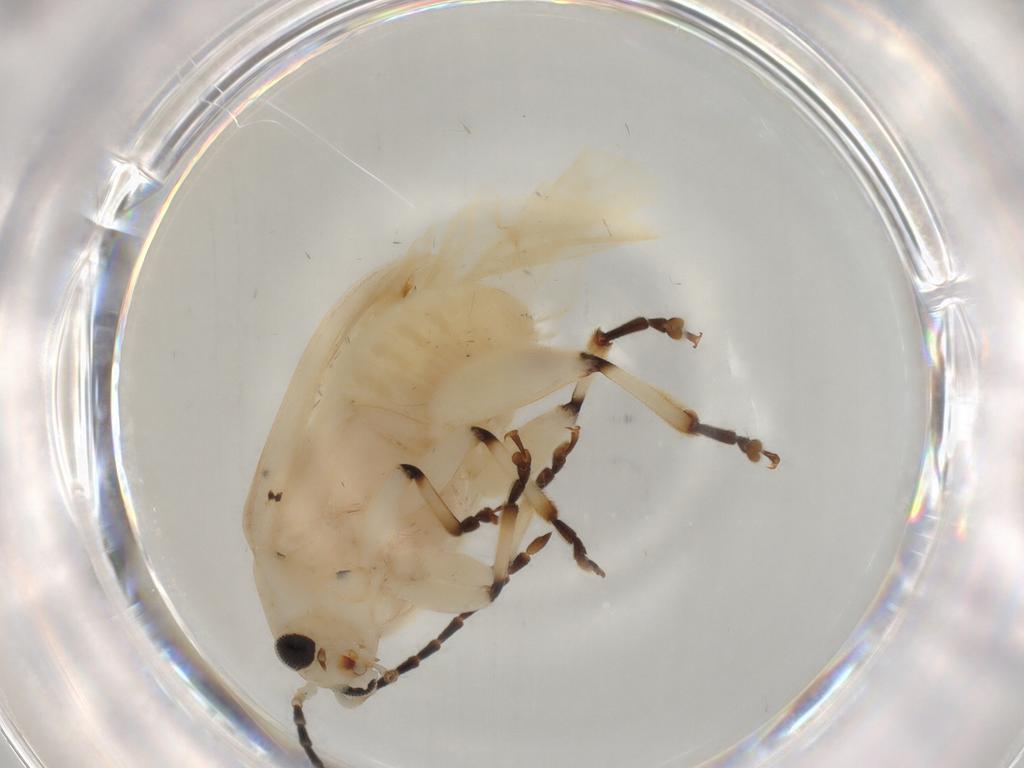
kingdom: Animalia
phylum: Arthropoda
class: Insecta
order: Coleoptera
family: Chrysomelidae
